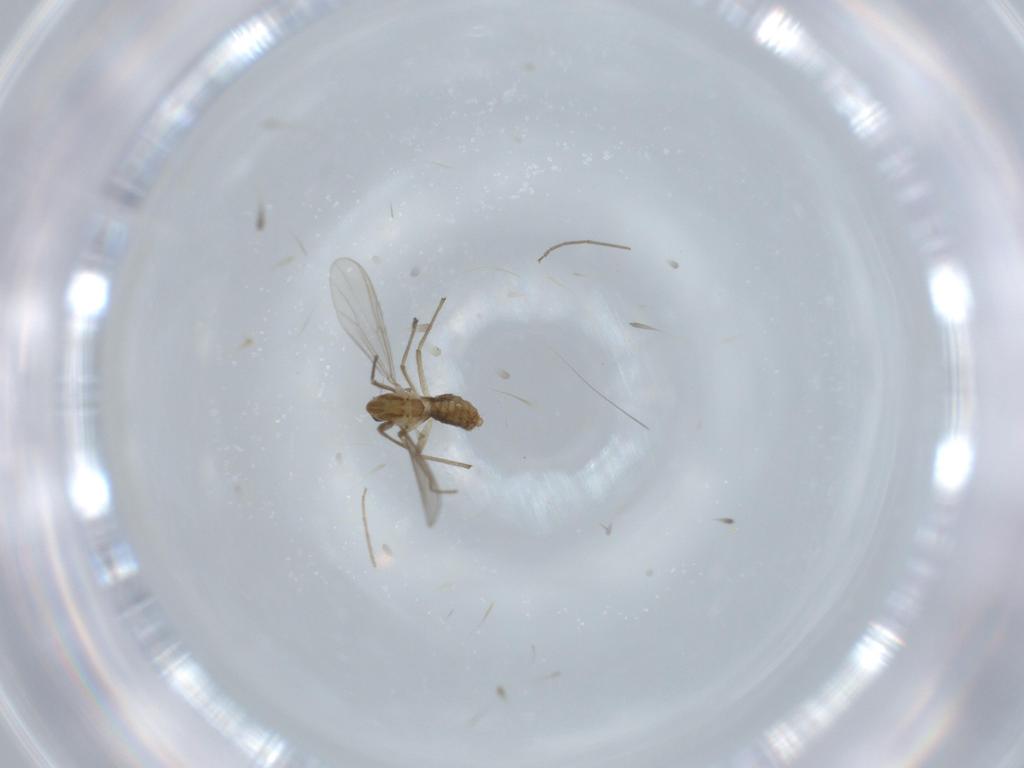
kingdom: Animalia
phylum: Arthropoda
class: Insecta
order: Diptera
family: Chironomidae
